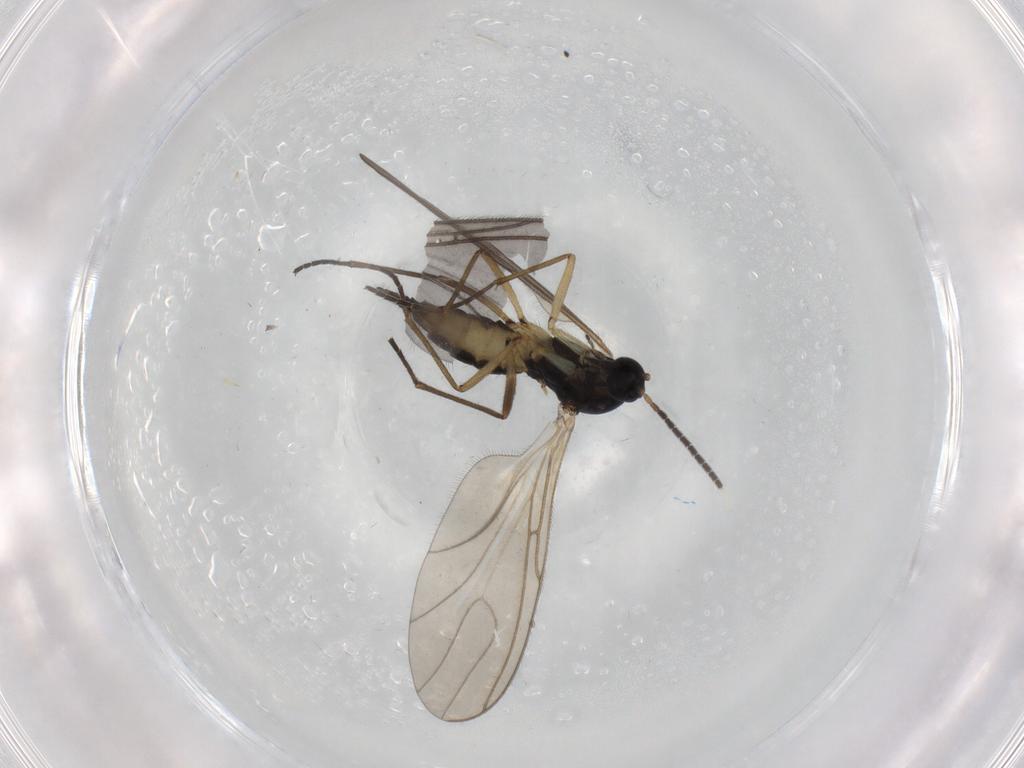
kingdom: Animalia
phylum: Arthropoda
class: Insecta
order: Diptera
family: Sciaridae
